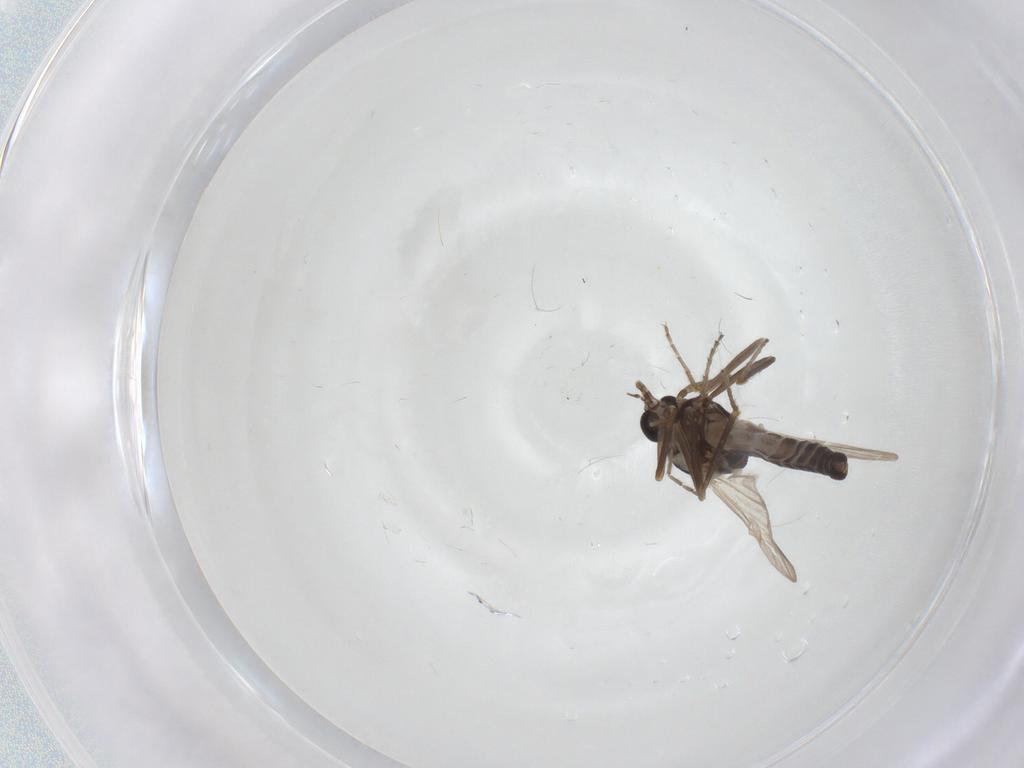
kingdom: Animalia
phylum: Arthropoda
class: Insecta
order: Diptera
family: Ceratopogonidae
